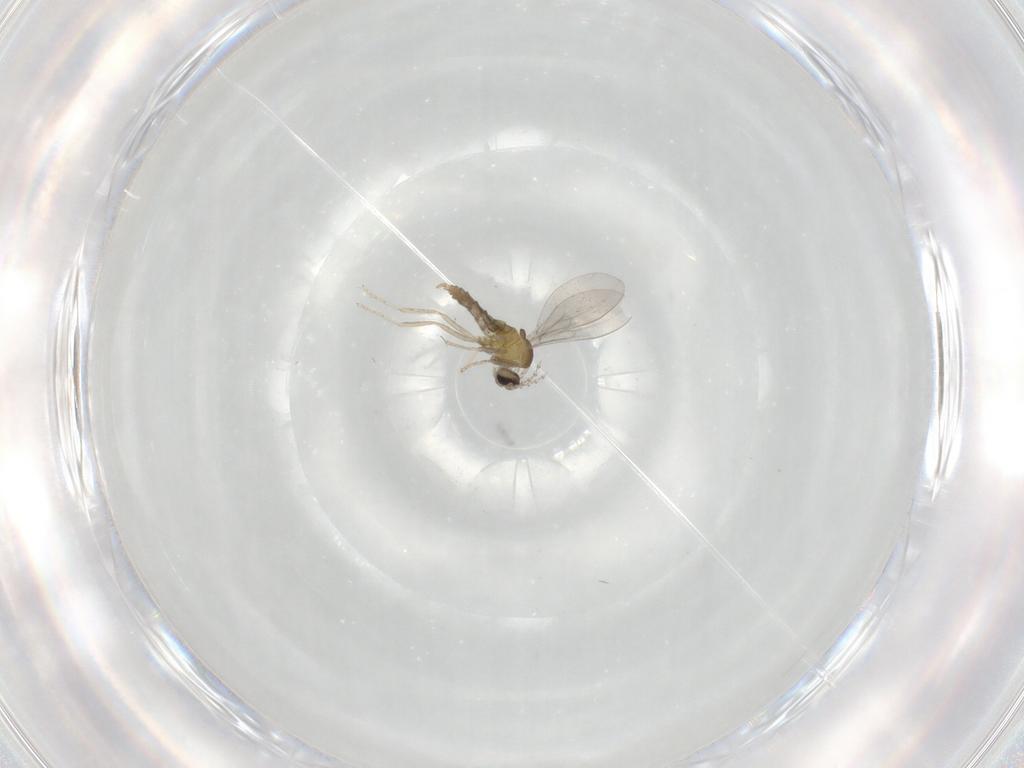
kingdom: Animalia
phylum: Arthropoda
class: Insecta
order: Diptera
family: Cecidomyiidae
